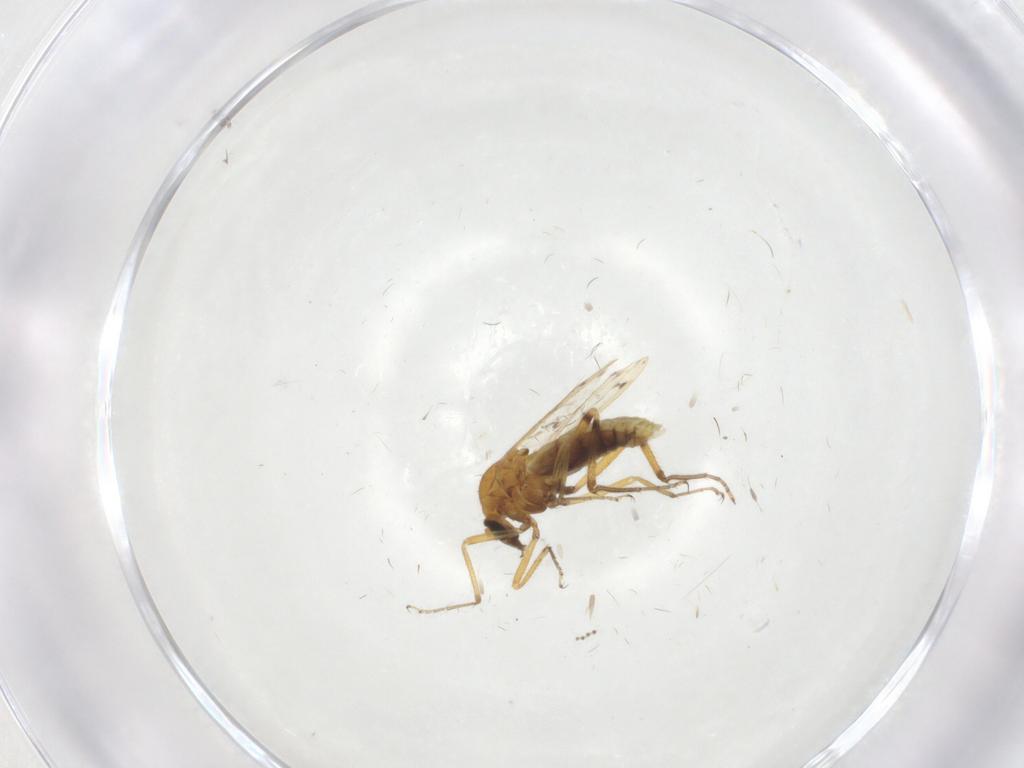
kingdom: Animalia
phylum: Arthropoda
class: Insecta
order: Diptera
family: Ceratopogonidae
